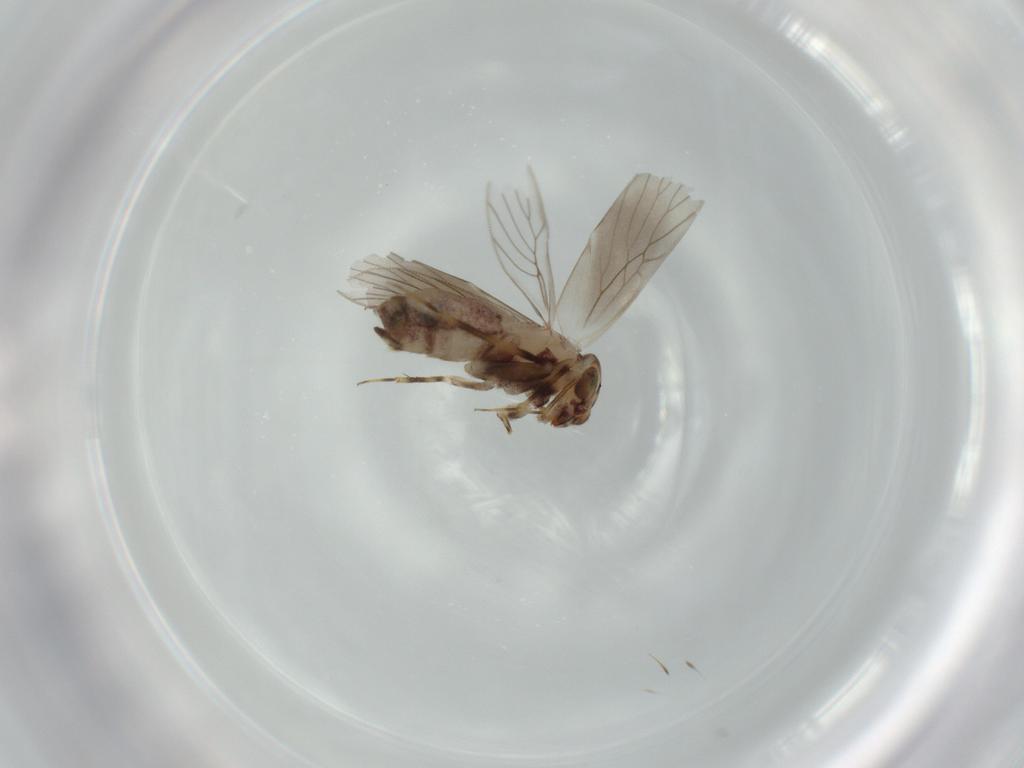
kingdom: Animalia
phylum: Arthropoda
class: Insecta
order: Psocodea
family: Lepidopsocidae
